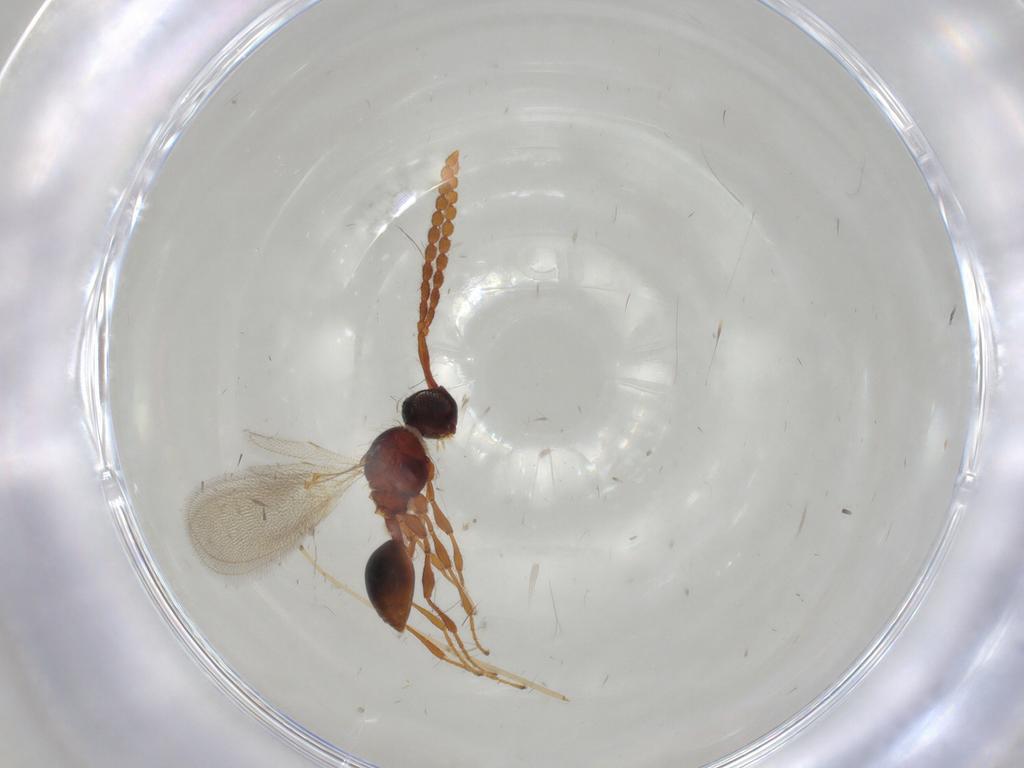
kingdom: Animalia
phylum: Arthropoda
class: Insecta
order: Hymenoptera
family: Diapriidae
